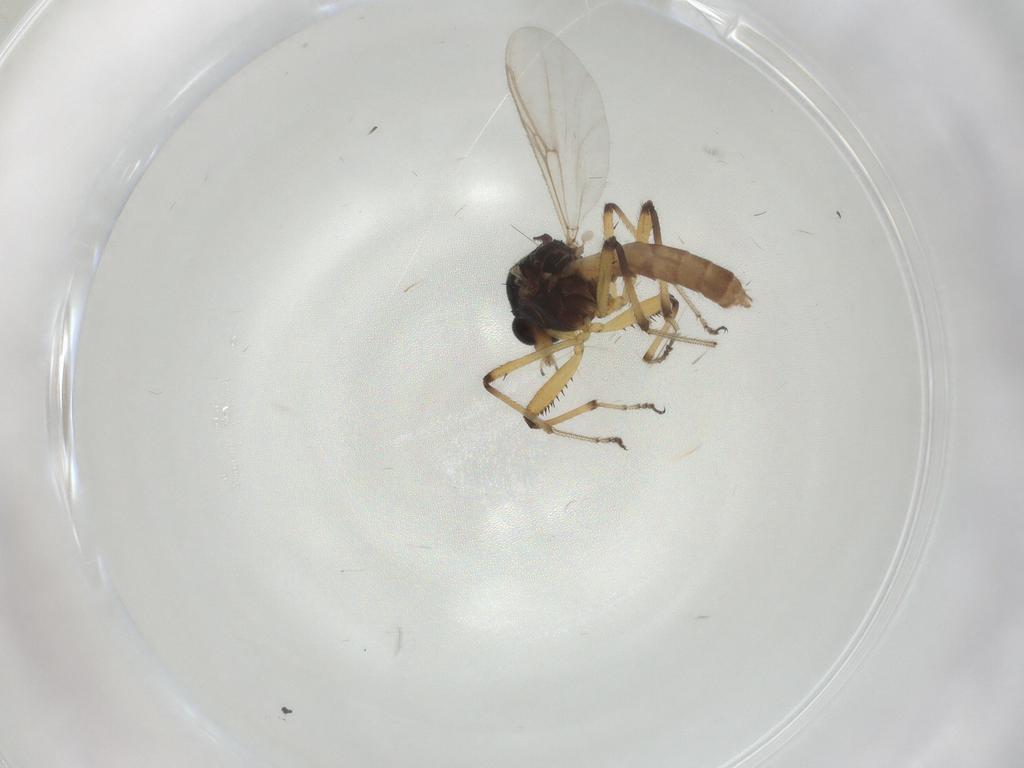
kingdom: Animalia
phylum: Arthropoda
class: Insecta
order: Diptera
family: Ceratopogonidae
